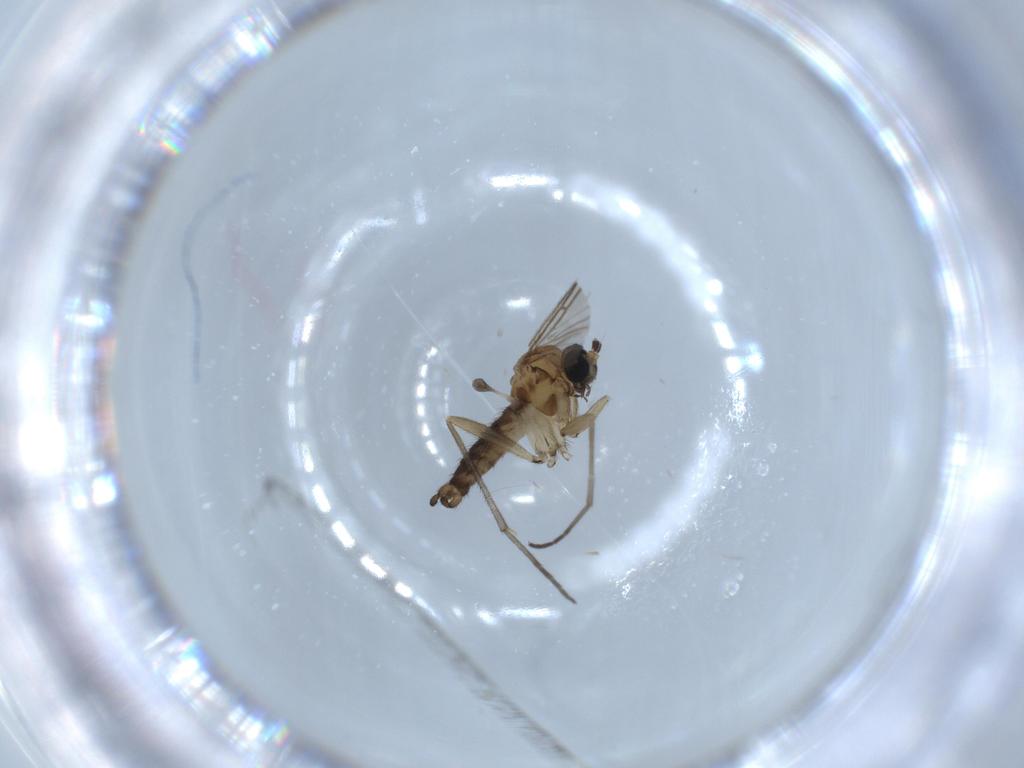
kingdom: Animalia
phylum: Arthropoda
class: Insecta
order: Diptera
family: Sciaridae
